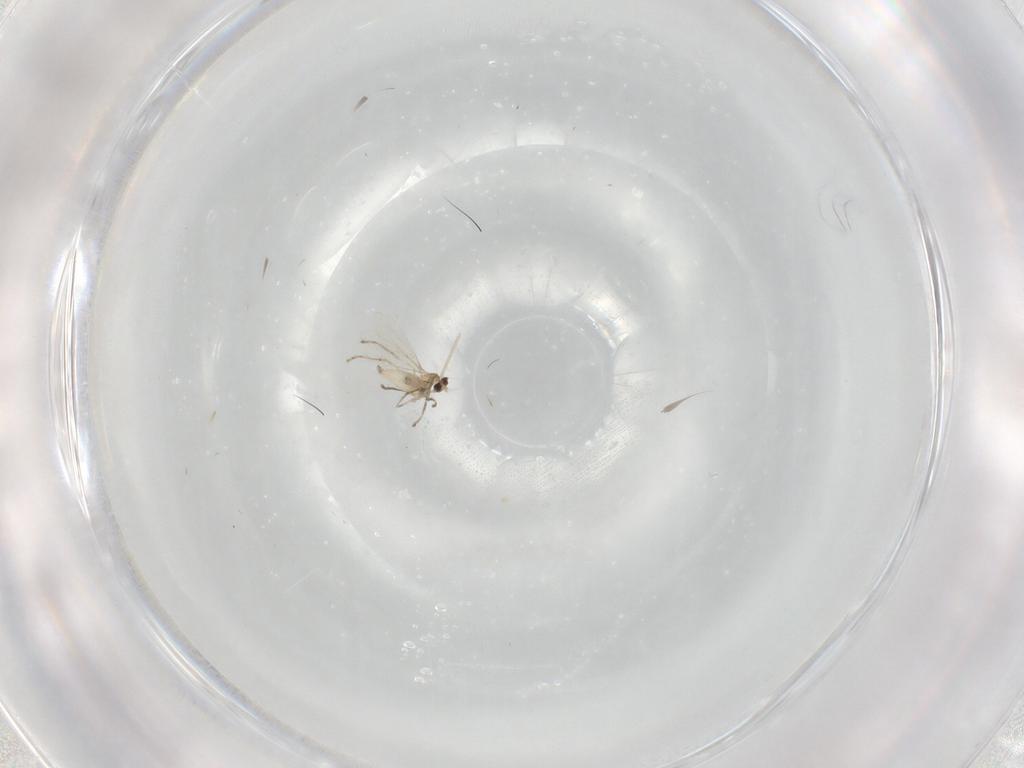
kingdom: Animalia
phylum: Arthropoda
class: Insecta
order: Diptera
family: Cecidomyiidae
